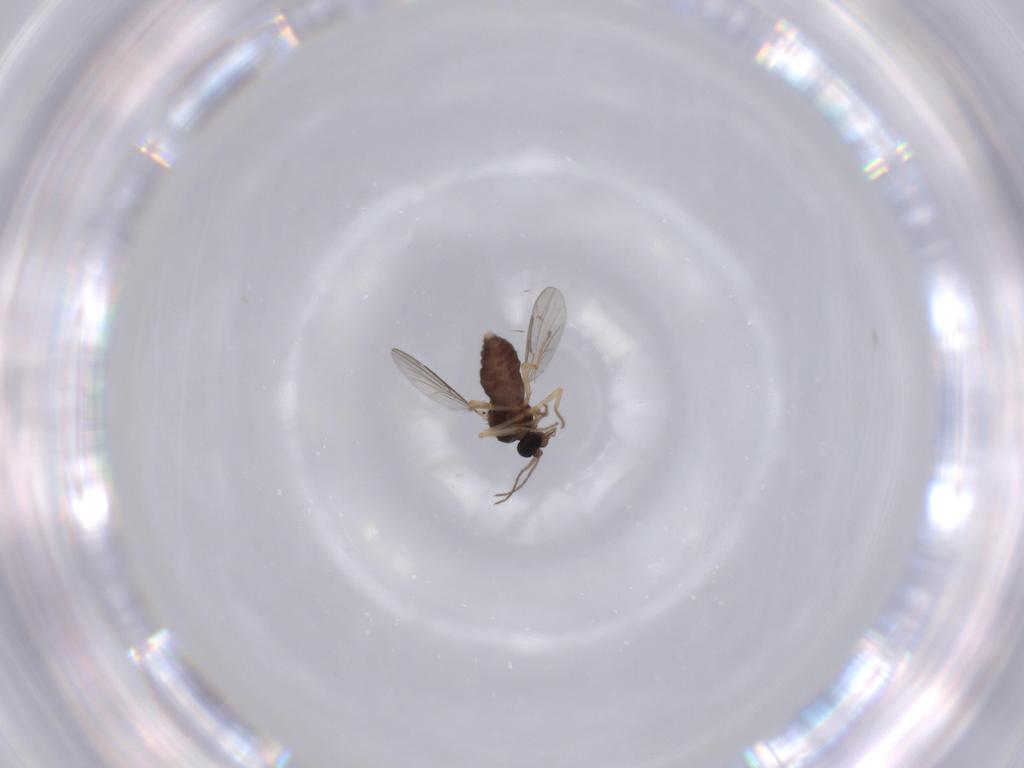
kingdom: Animalia
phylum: Arthropoda
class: Insecta
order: Diptera
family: Ceratopogonidae
